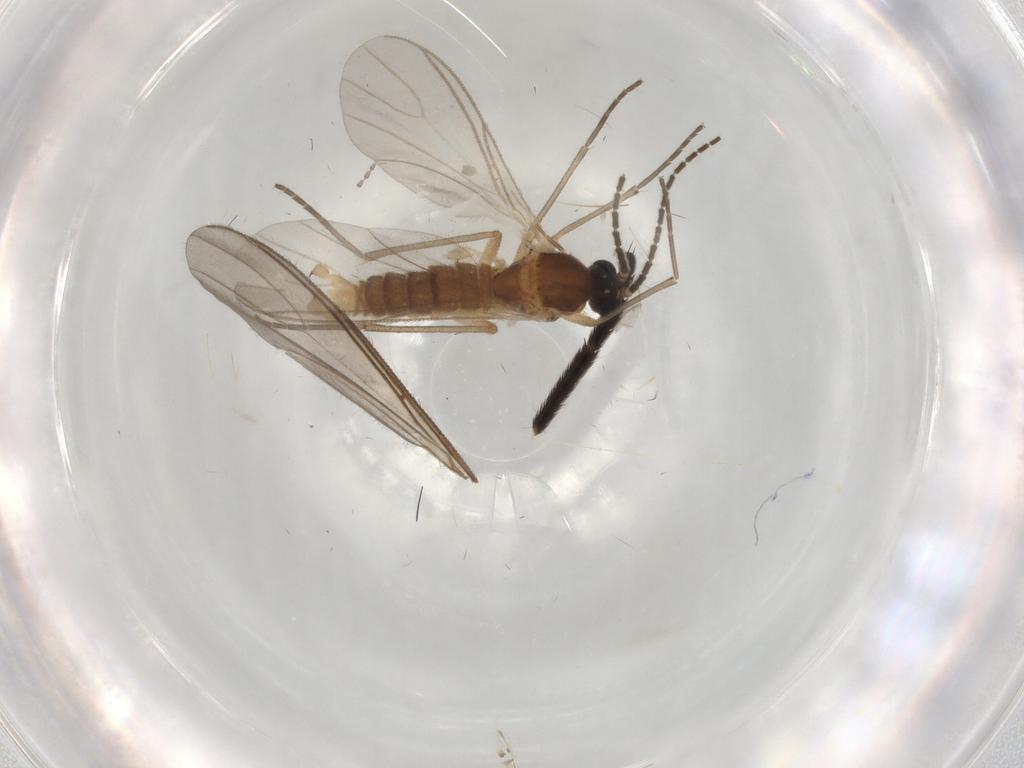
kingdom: Animalia
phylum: Arthropoda
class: Insecta
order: Diptera
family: Sciaridae
